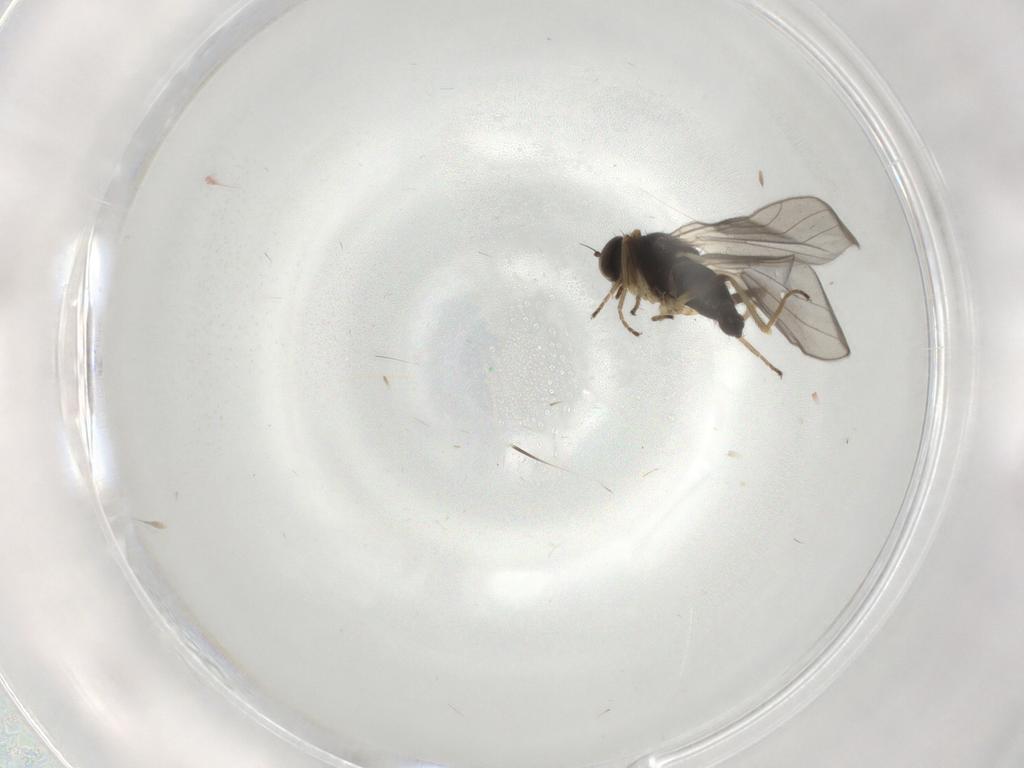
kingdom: Animalia
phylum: Arthropoda
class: Insecta
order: Diptera
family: Hybotidae
